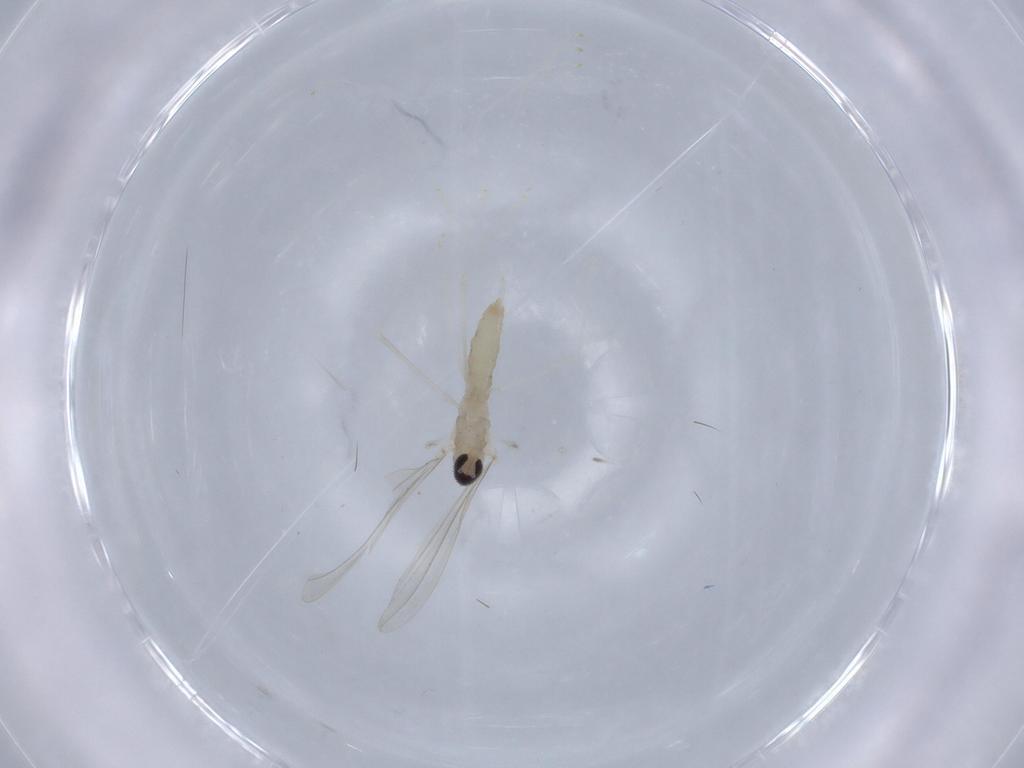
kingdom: Animalia
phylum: Arthropoda
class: Insecta
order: Diptera
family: Cecidomyiidae
